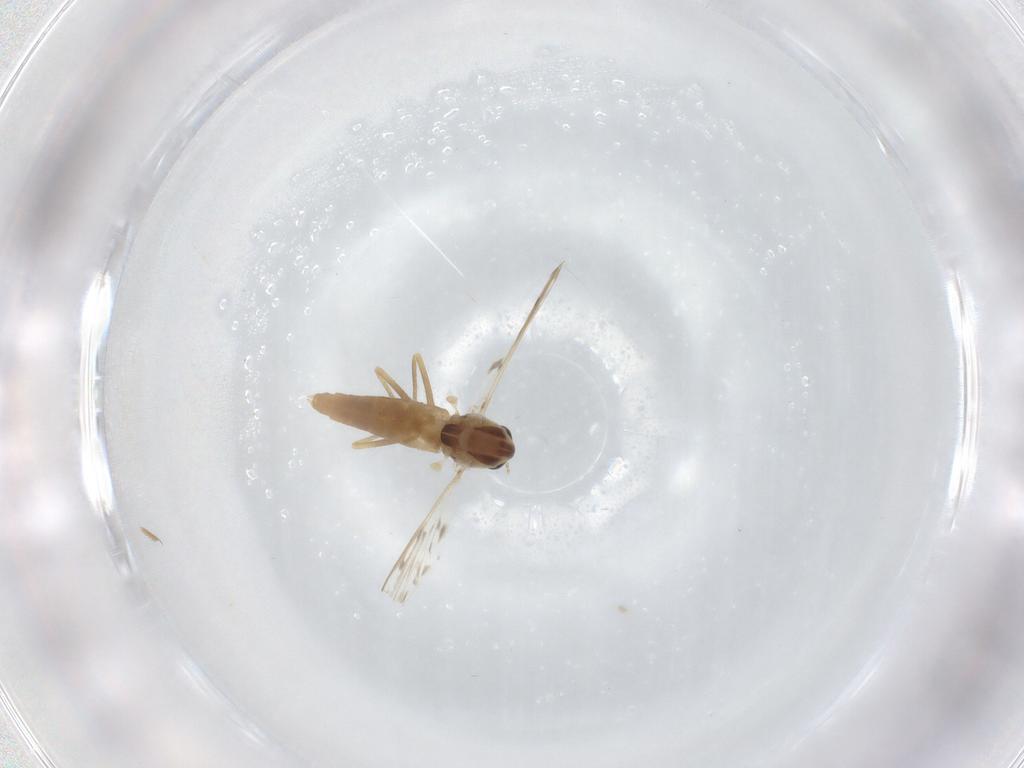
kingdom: Animalia
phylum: Arthropoda
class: Insecta
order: Diptera
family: Chironomidae
